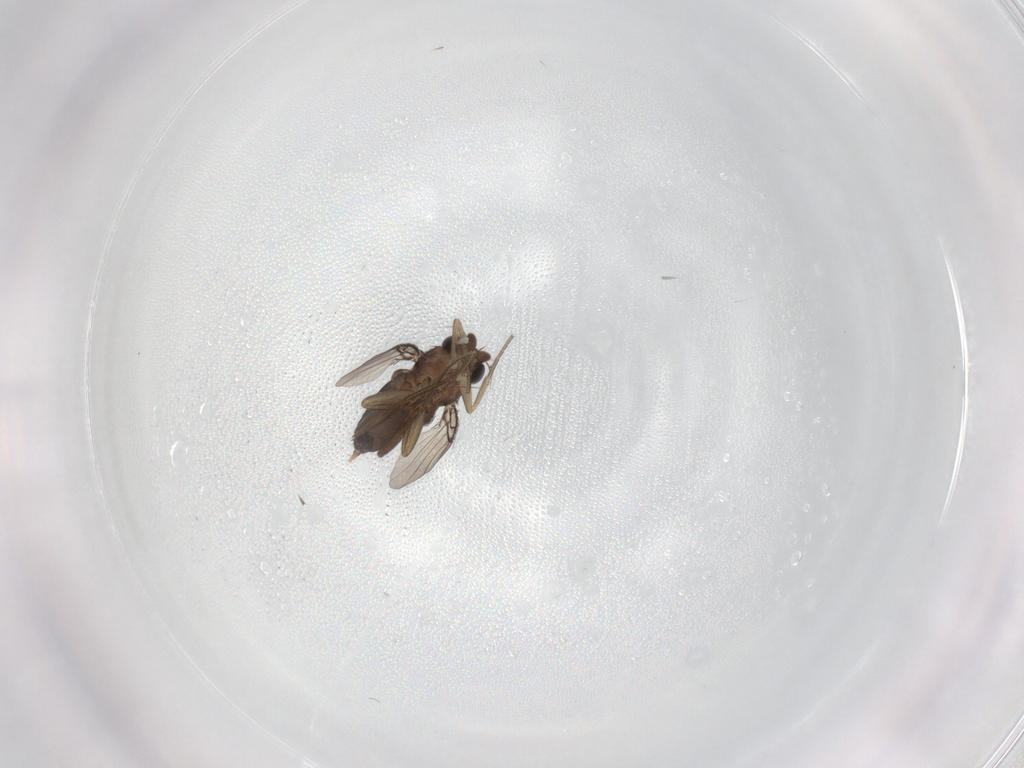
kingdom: Animalia
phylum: Arthropoda
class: Insecta
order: Diptera
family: Phoridae
